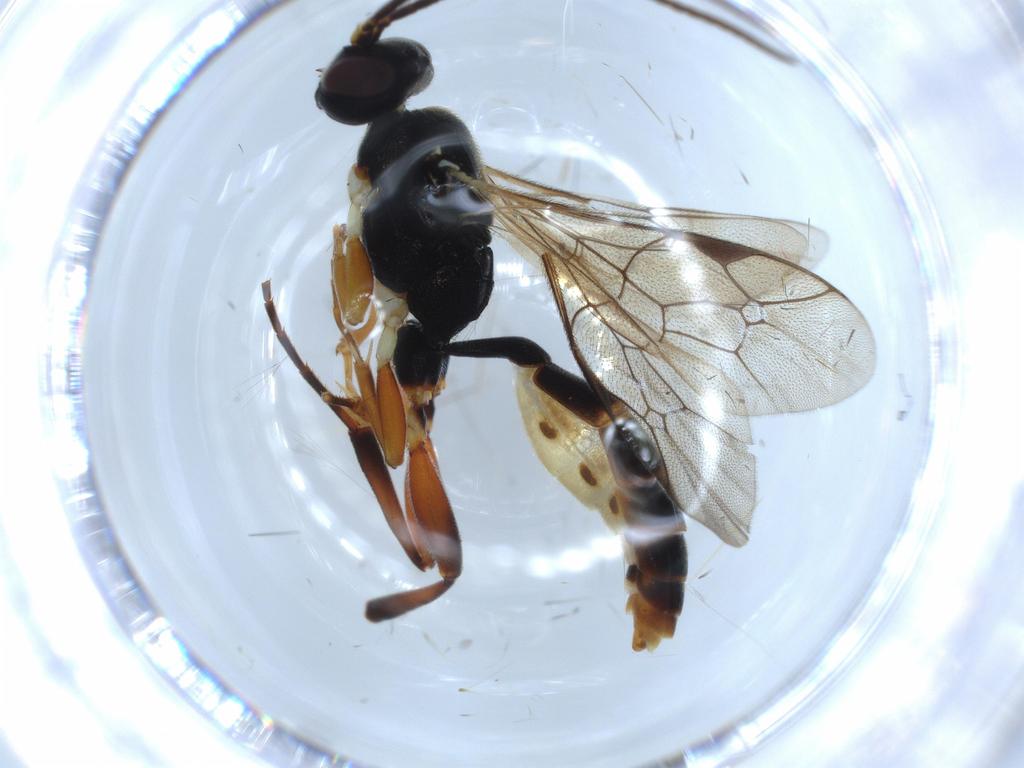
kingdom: Animalia
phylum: Arthropoda
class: Insecta
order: Hymenoptera
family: Ichneumonidae
